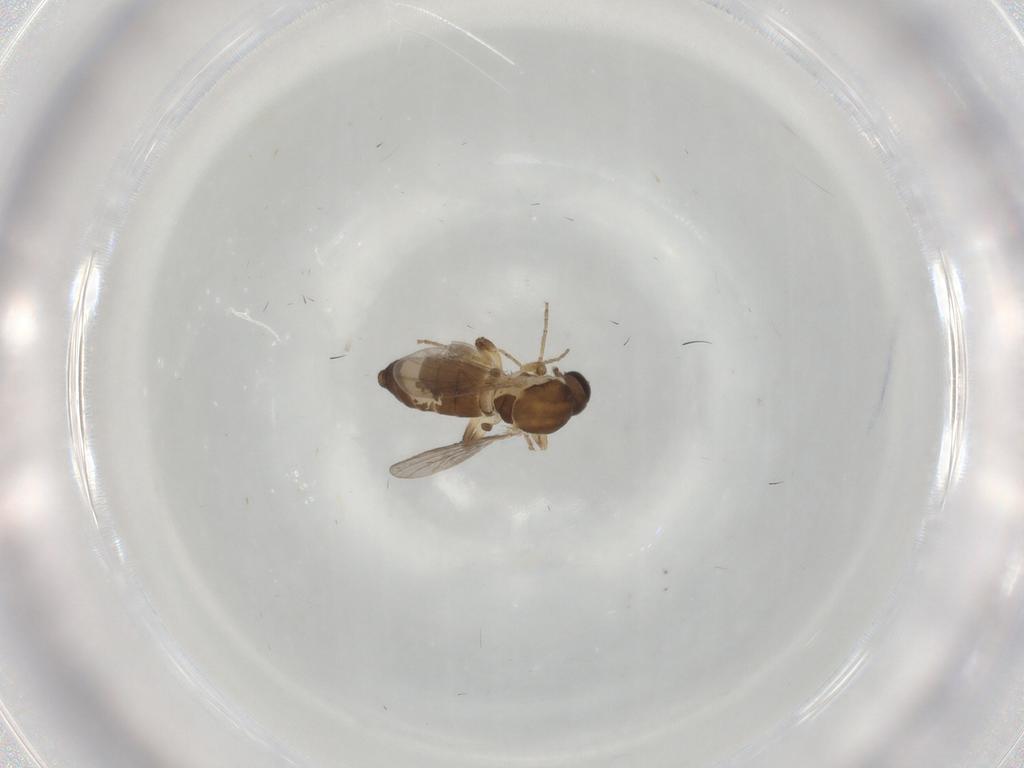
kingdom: Animalia
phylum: Arthropoda
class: Insecta
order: Diptera
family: Ceratopogonidae
